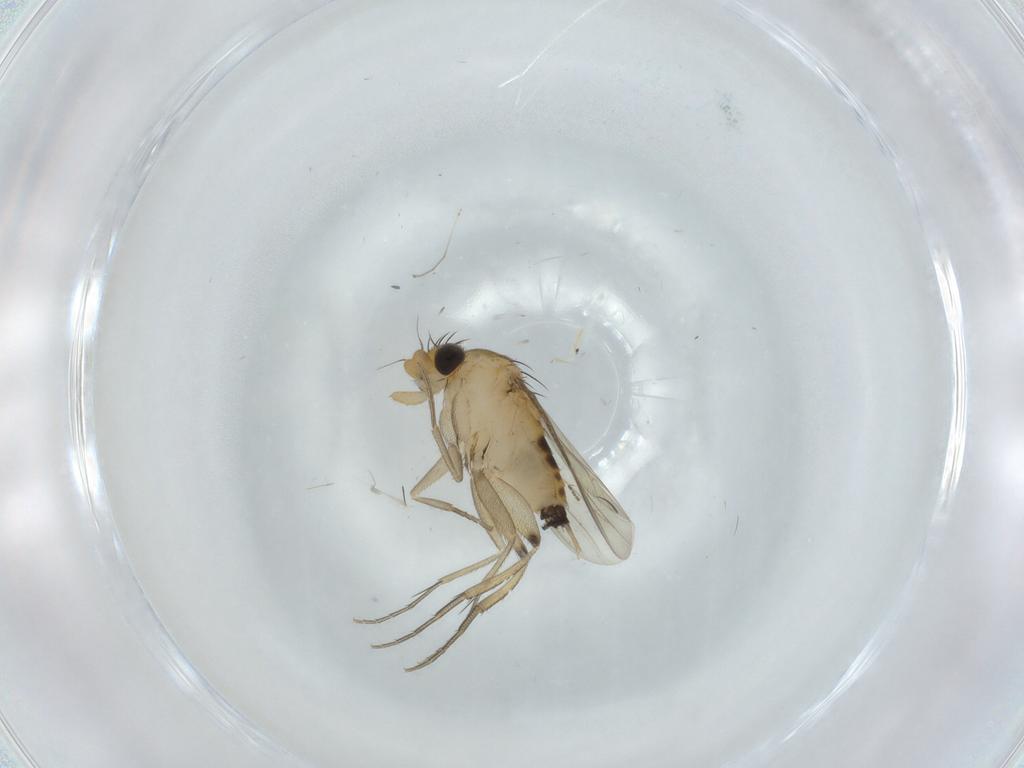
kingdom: Animalia
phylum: Arthropoda
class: Insecta
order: Diptera
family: Phoridae
